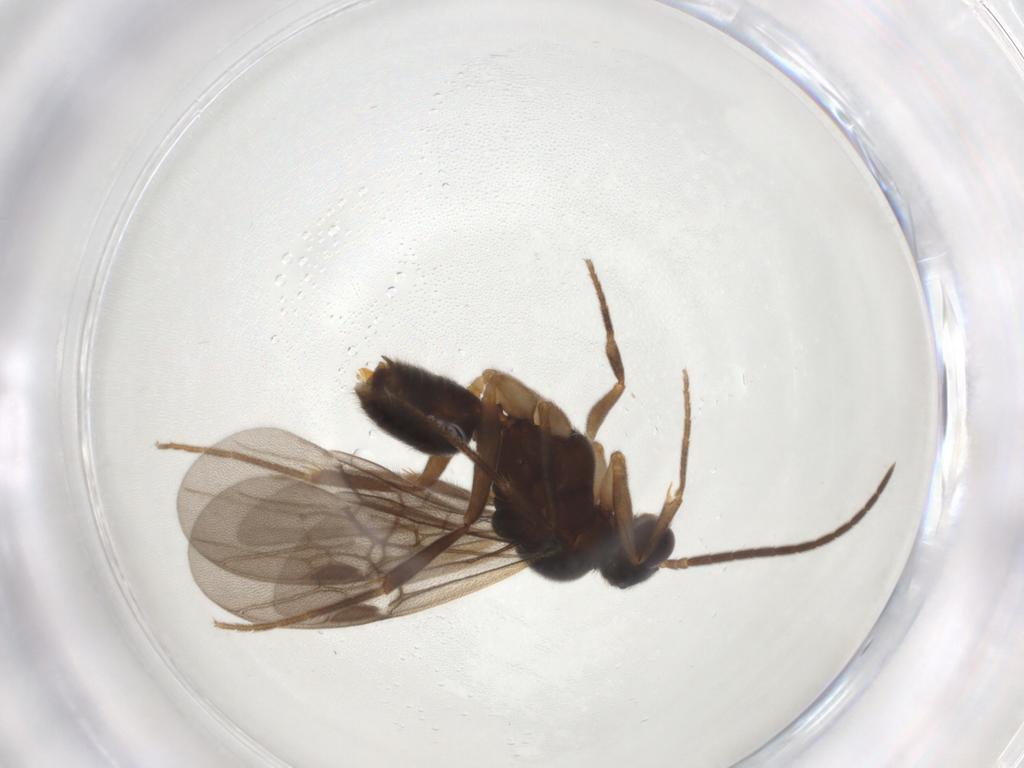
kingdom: Animalia
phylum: Arthropoda
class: Insecta
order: Hymenoptera
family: Formicidae
